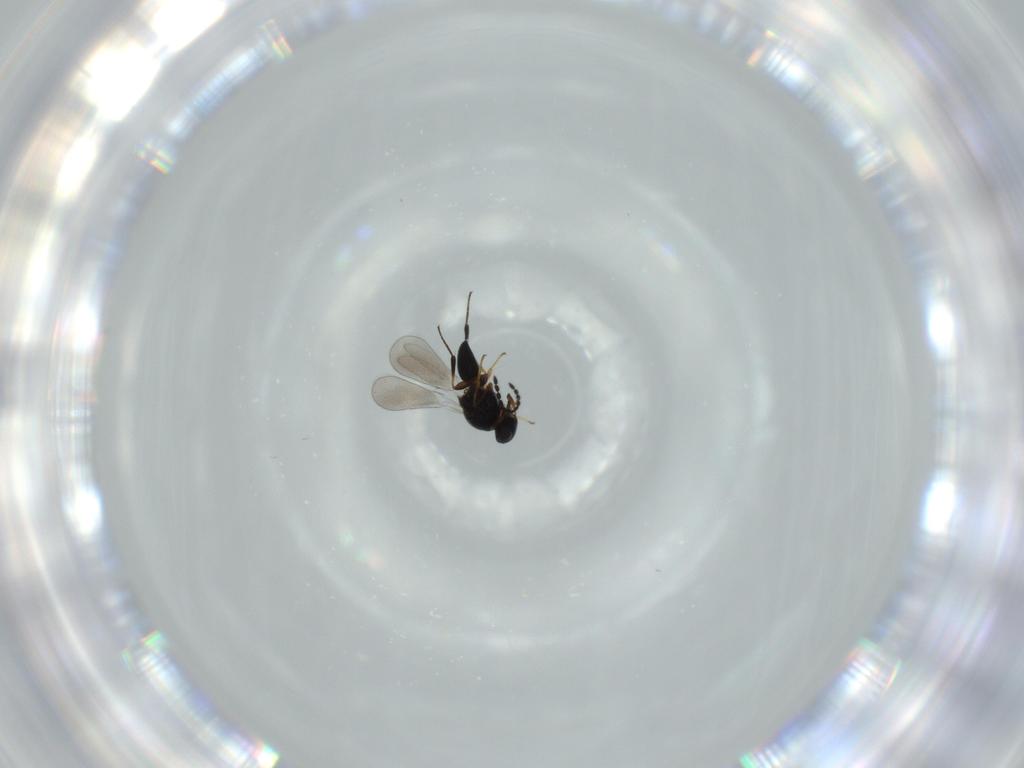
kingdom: Animalia
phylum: Arthropoda
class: Insecta
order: Hymenoptera
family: Platygastridae
